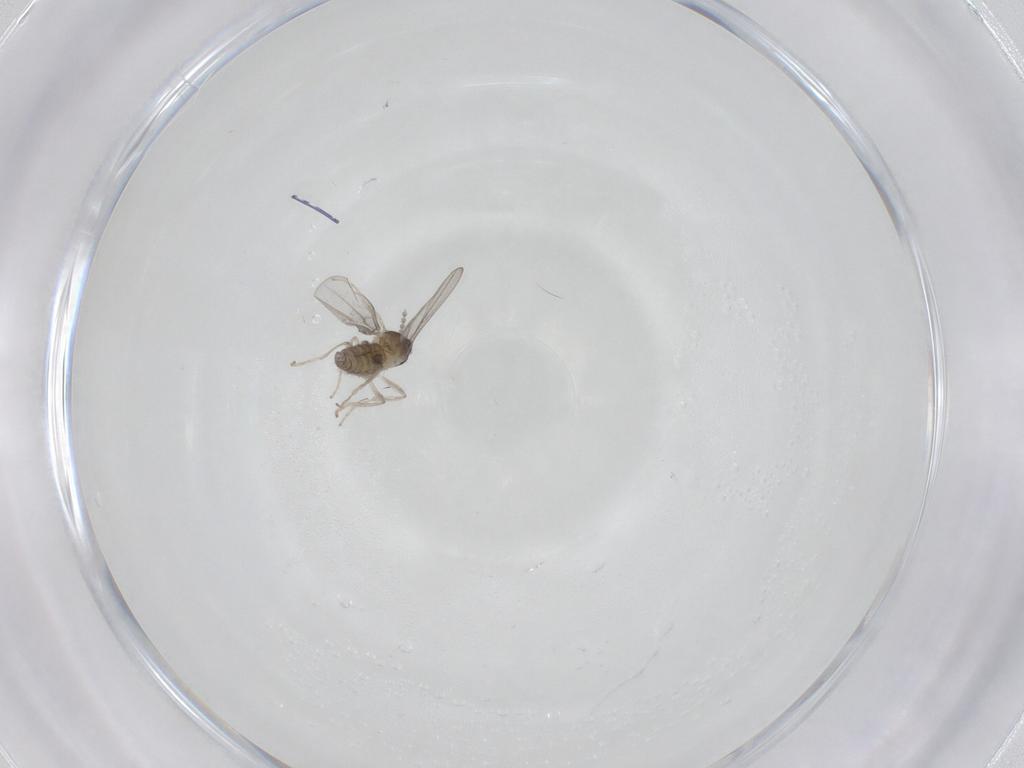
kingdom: Animalia
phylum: Arthropoda
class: Insecta
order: Diptera
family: Cecidomyiidae
